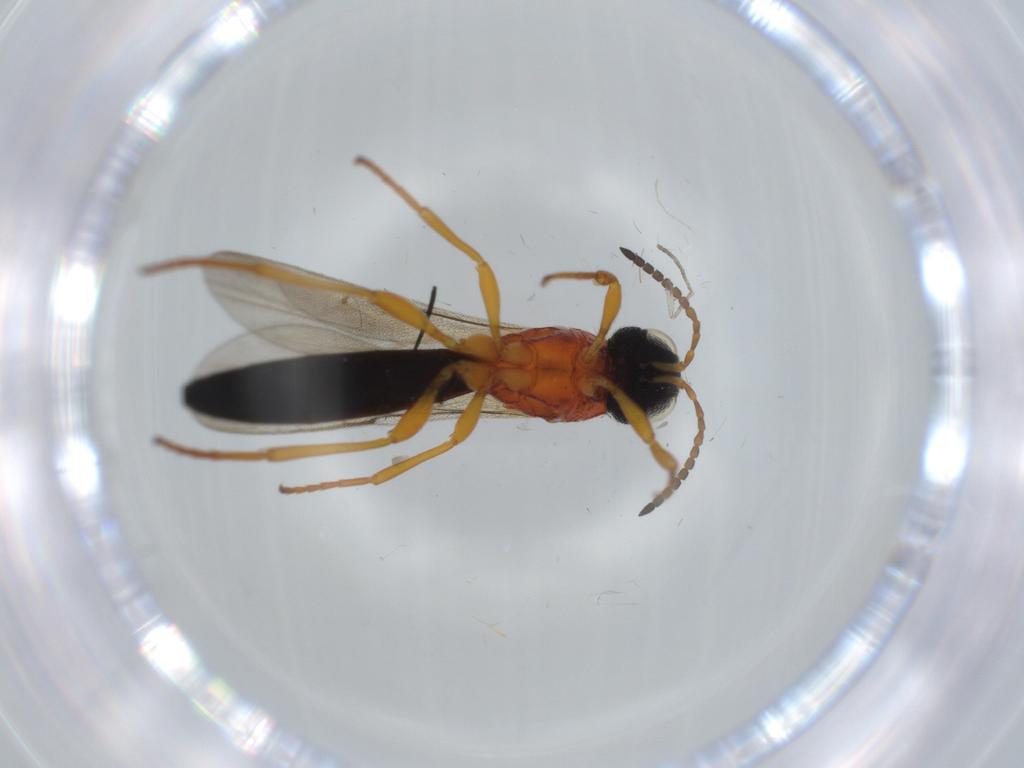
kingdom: Animalia
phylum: Arthropoda
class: Insecta
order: Hymenoptera
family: Scelionidae
